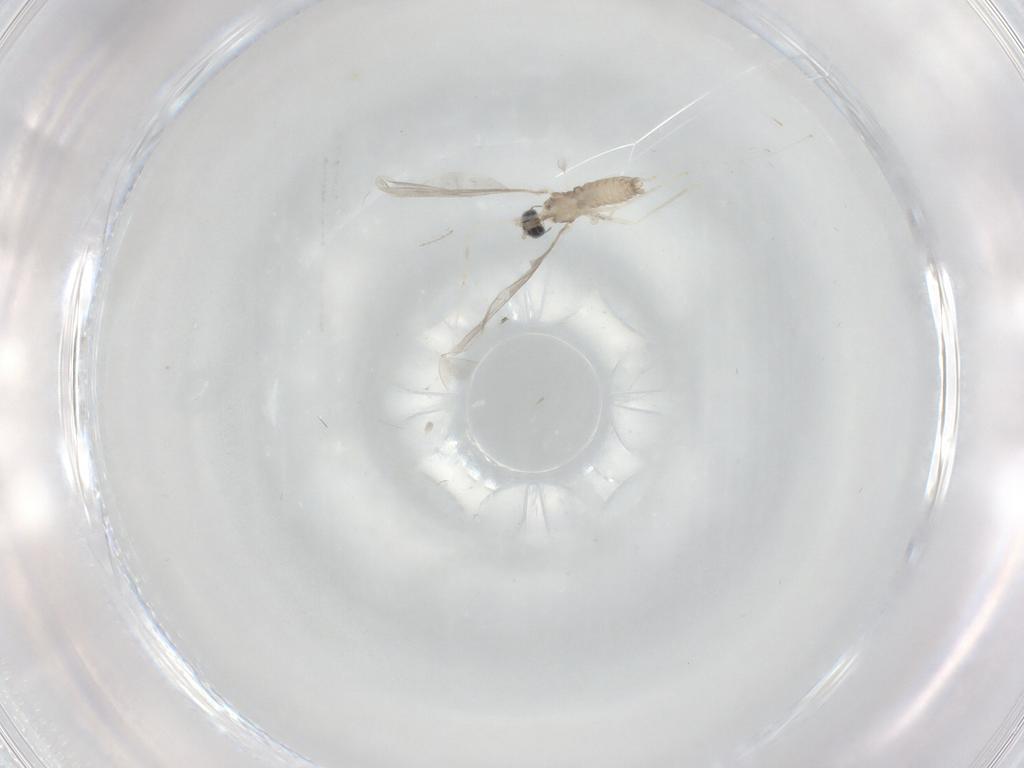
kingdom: Animalia
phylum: Arthropoda
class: Insecta
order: Diptera
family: Cecidomyiidae
